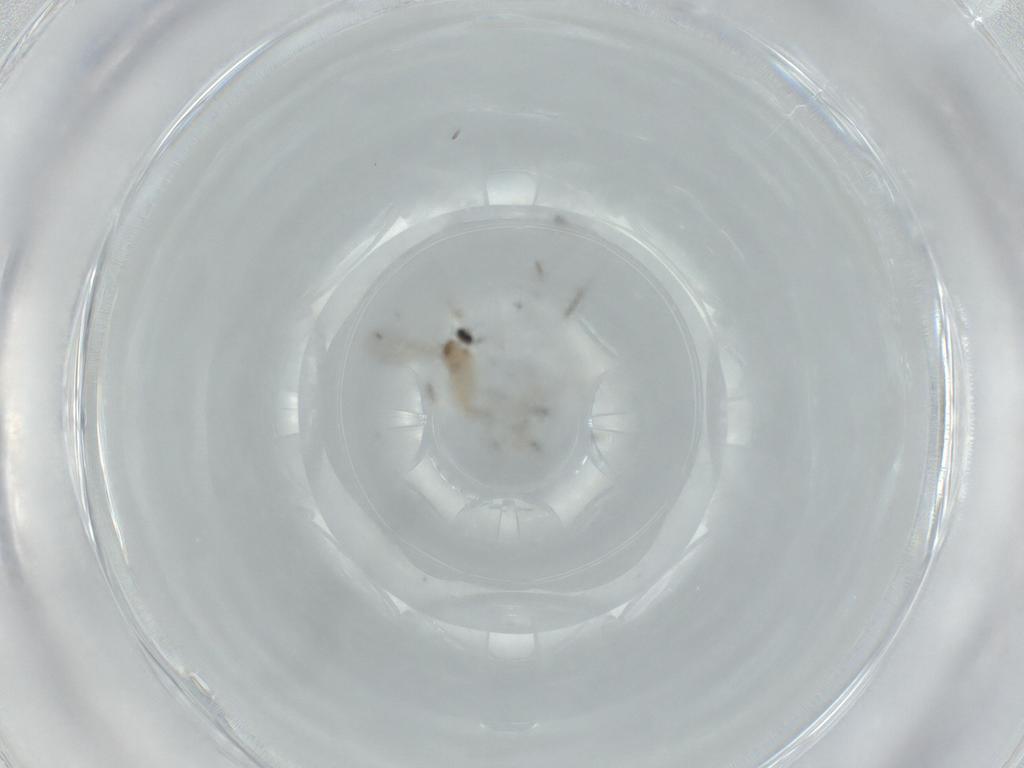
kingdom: Animalia
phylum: Arthropoda
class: Insecta
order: Diptera
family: Cecidomyiidae
